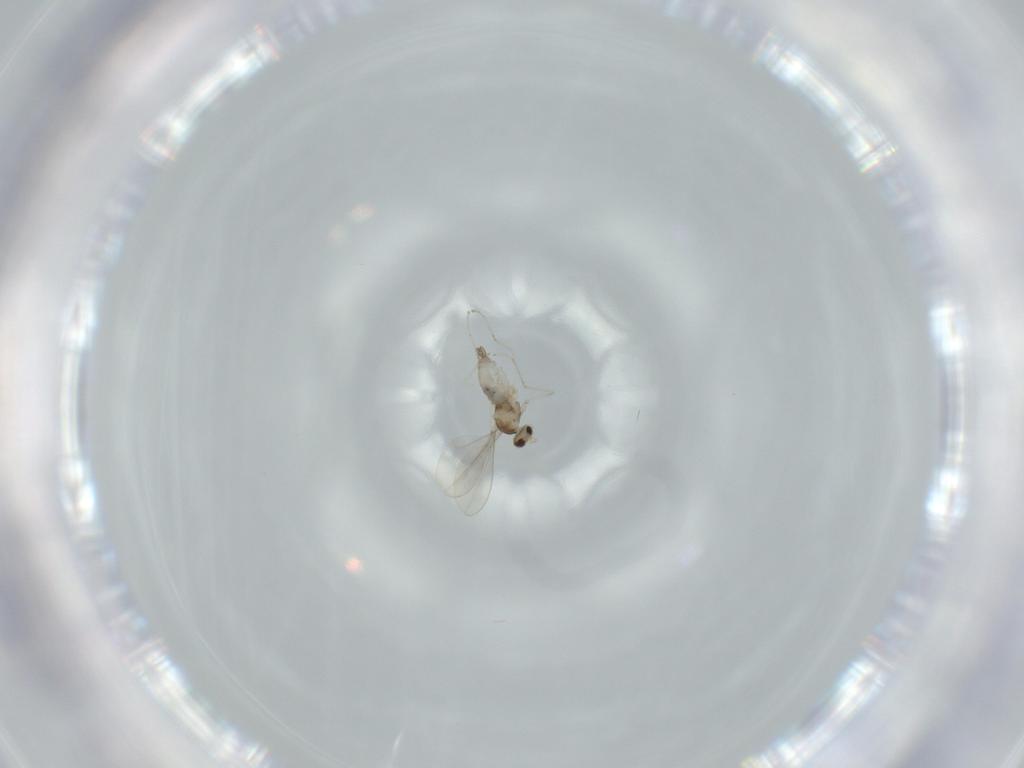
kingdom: Animalia
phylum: Arthropoda
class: Insecta
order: Diptera
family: Cecidomyiidae
